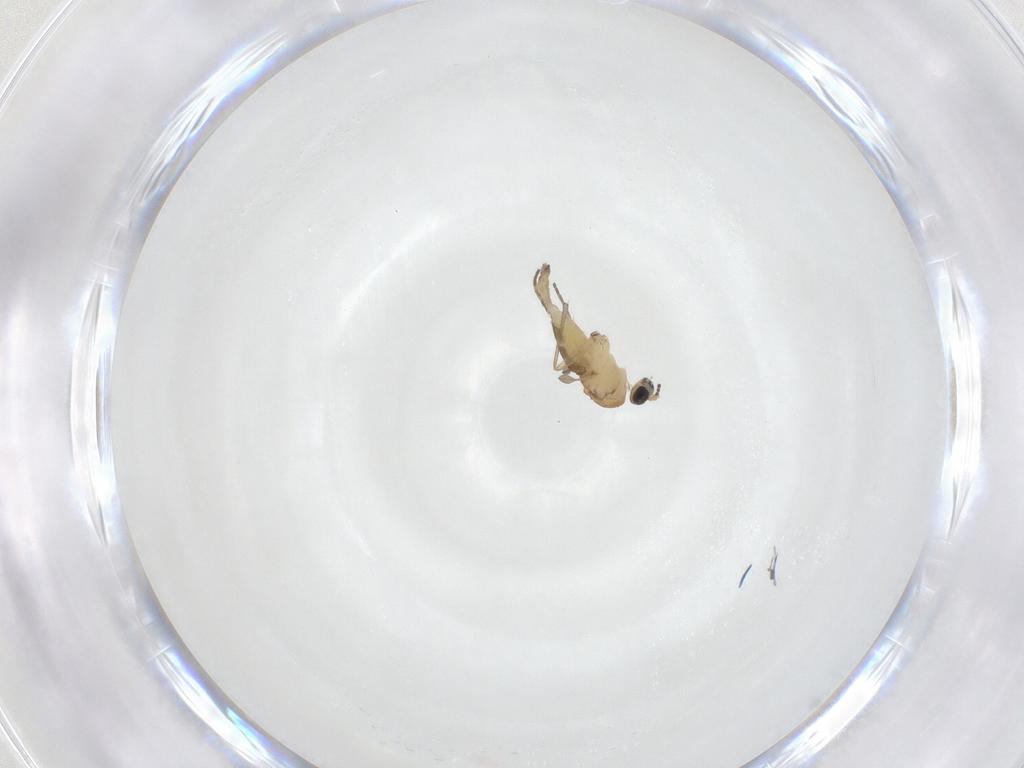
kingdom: Animalia
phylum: Arthropoda
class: Insecta
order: Diptera
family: Sciaridae
